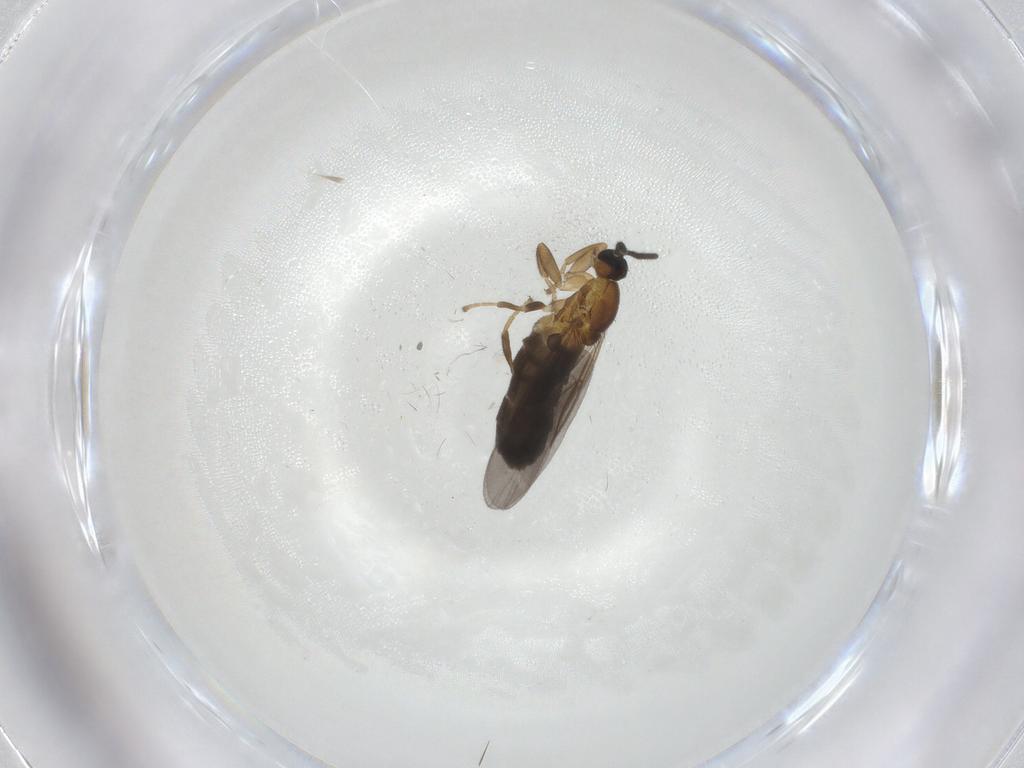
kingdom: Animalia
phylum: Arthropoda
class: Insecta
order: Diptera
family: Scatopsidae
